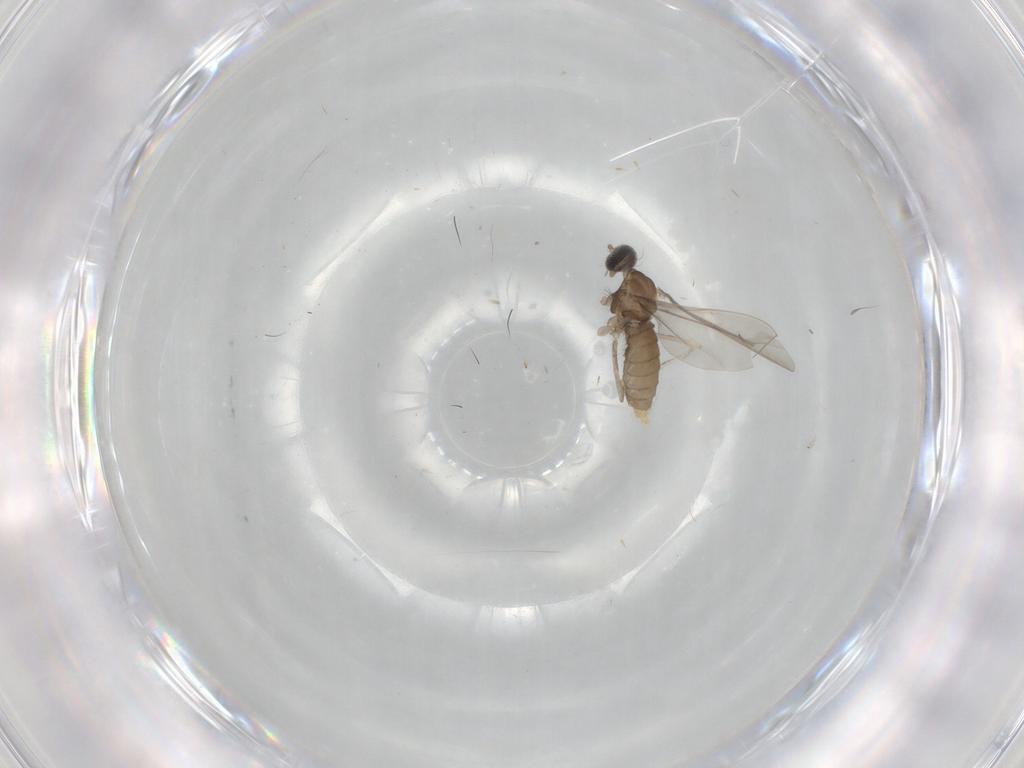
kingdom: Animalia
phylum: Arthropoda
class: Insecta
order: Diptera
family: Cecidomyiidae
